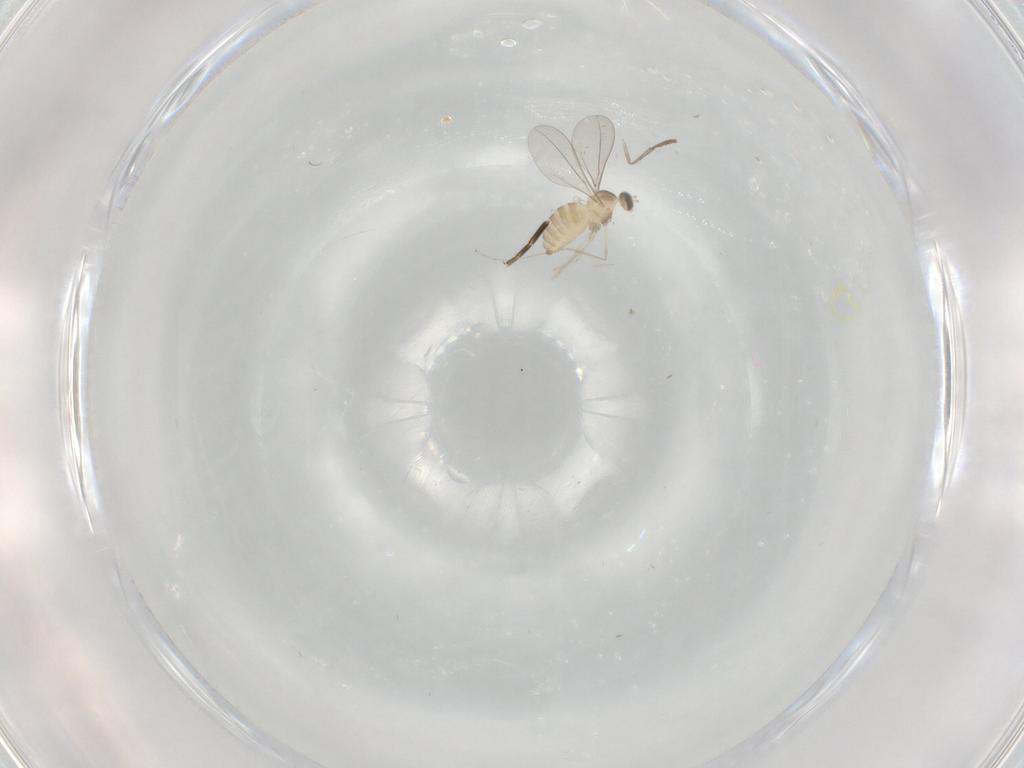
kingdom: Animalia
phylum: Arthropoda
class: Insecta
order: Diptera
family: Cecidomyiidae
